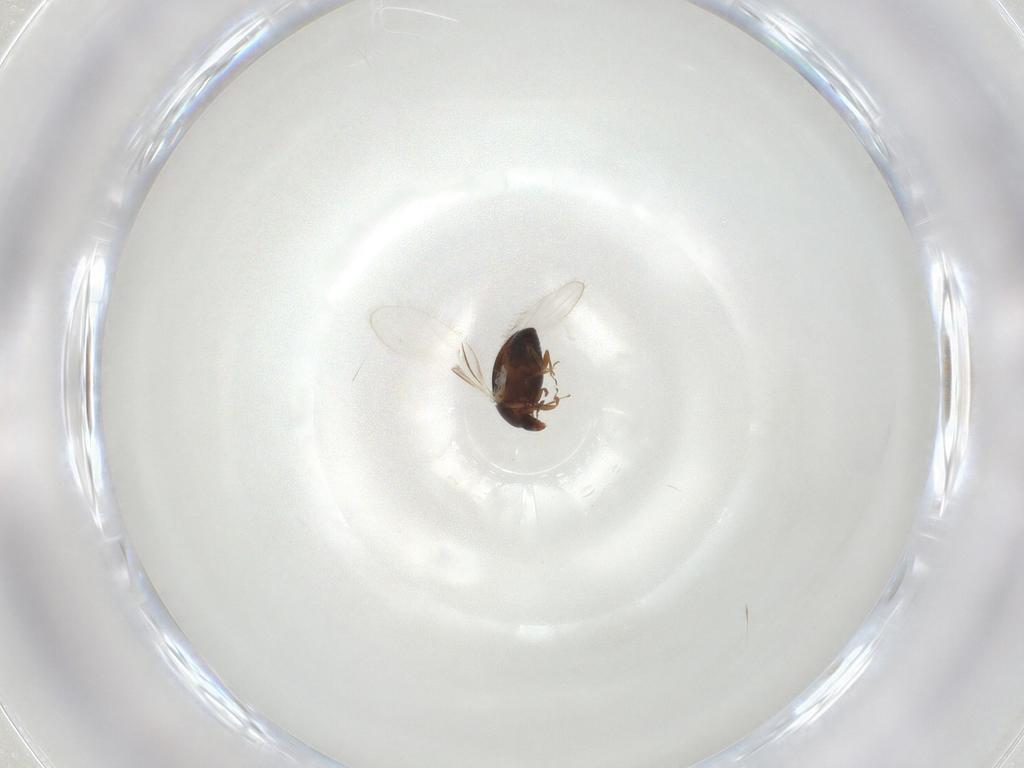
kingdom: Animalia
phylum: Arthropoda
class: Insecta
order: Coleoptera
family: Corylophidae
